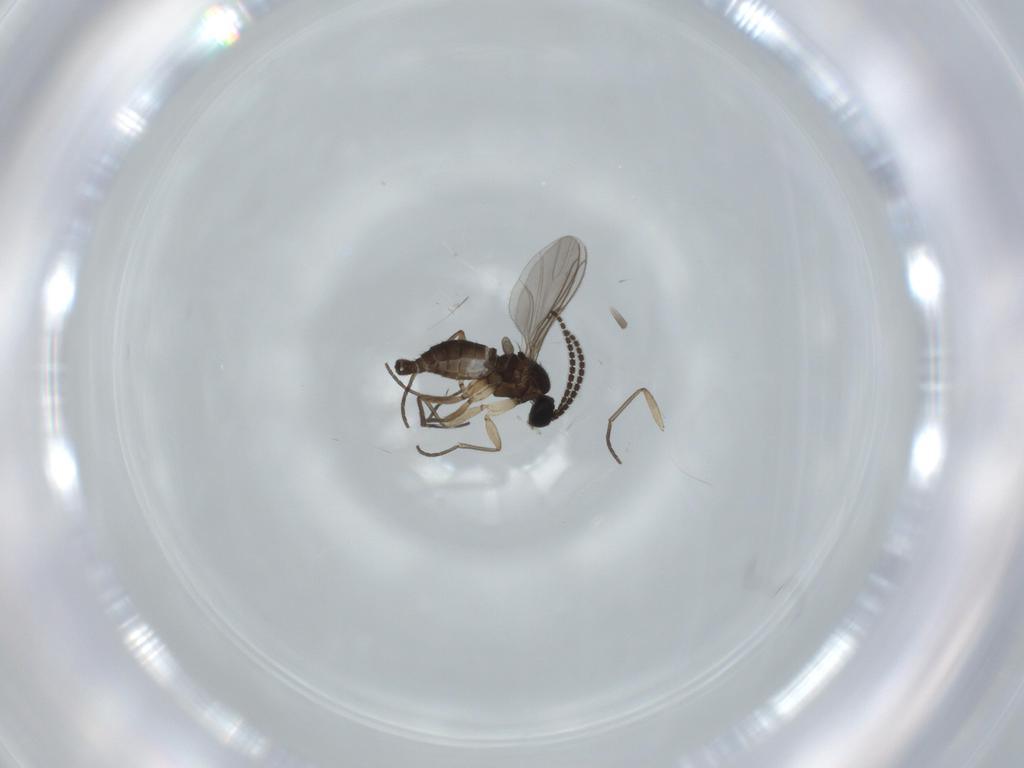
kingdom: Animalia
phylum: Arthropoda
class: Insecta
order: Diptera
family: Sciaridae
